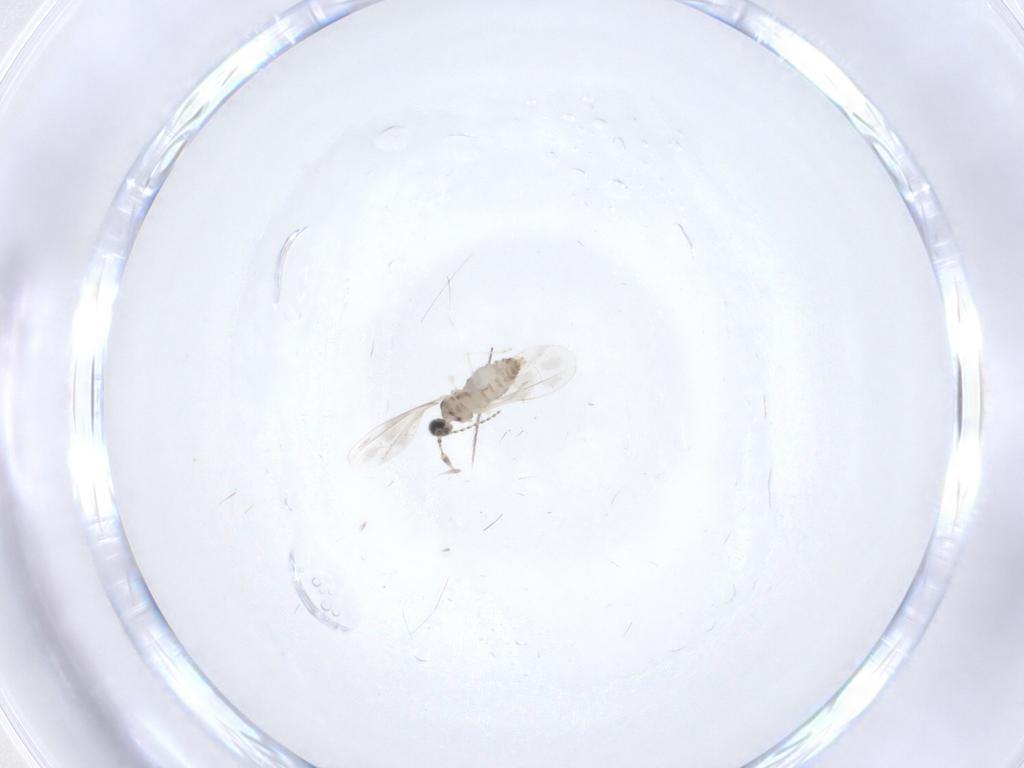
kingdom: Animalia
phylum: Arthropoda
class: Insecta
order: Diptera
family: Cecidomyiidae
